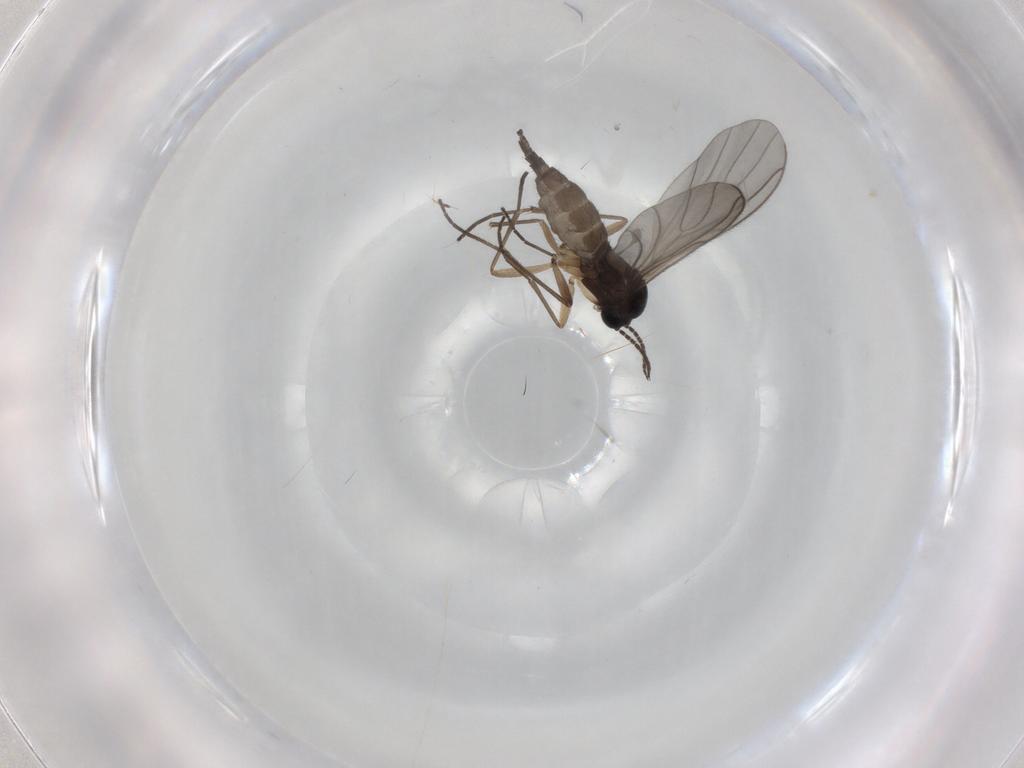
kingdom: Animalia
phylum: Arthropoda
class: Insecta
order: Diptera
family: Sciaridae
